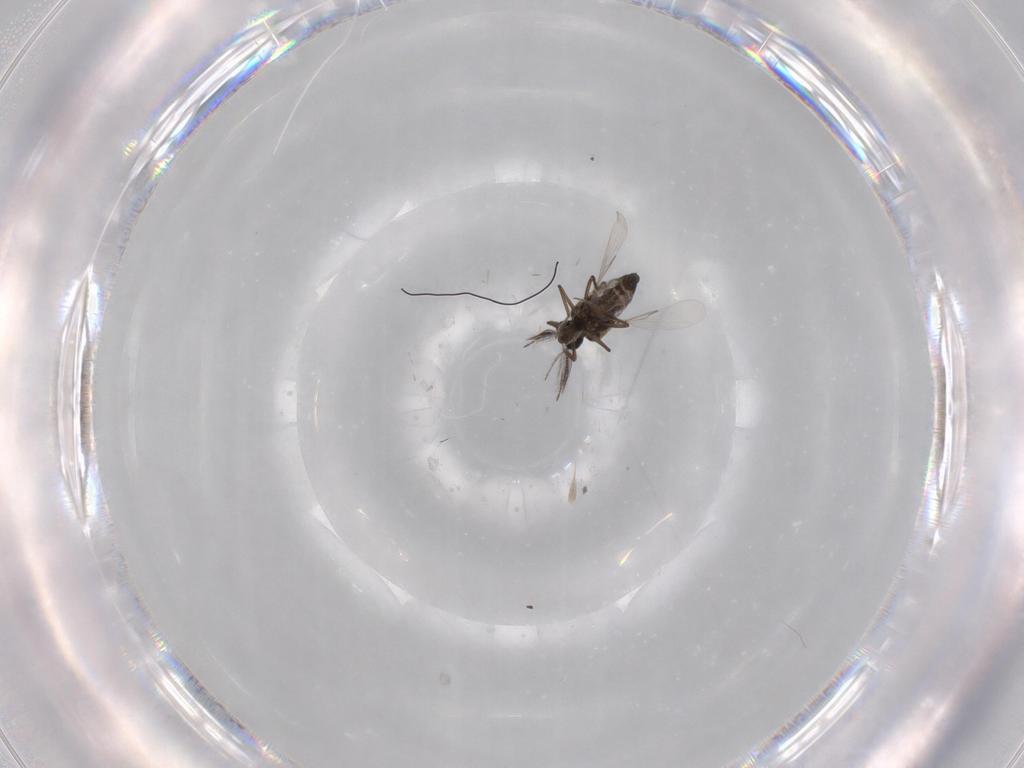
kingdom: Animalia
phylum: Arthropoda
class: Insecta
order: Diptera
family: Ceratopogonidae
